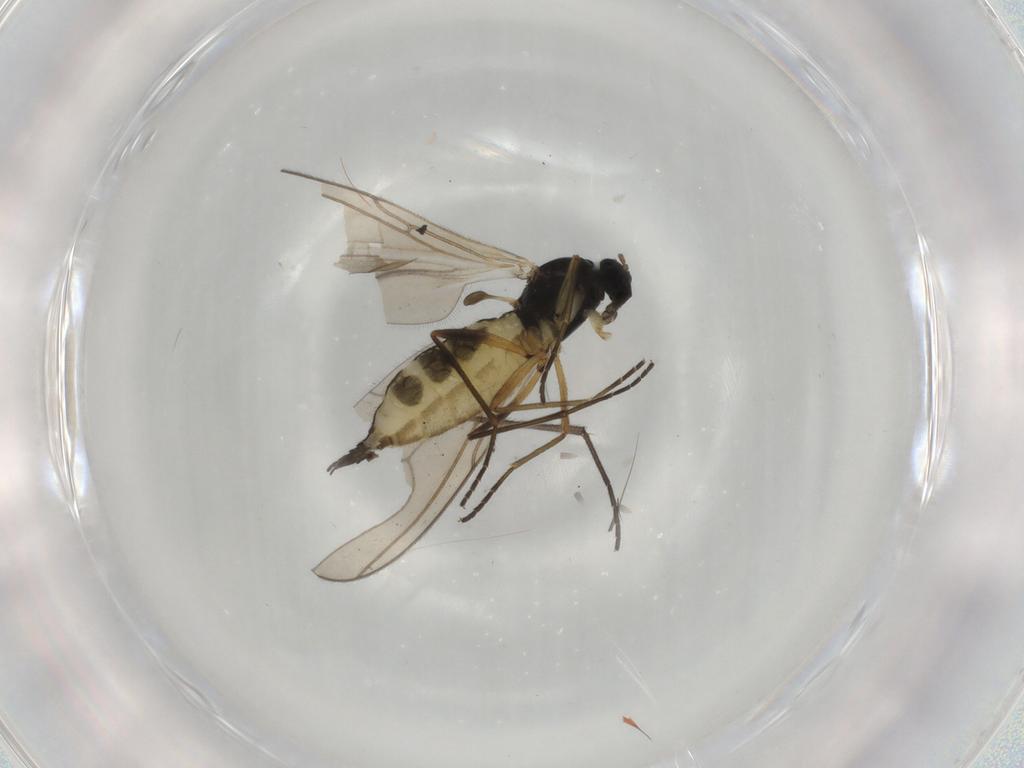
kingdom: Animalia
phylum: Arthropoda
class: Insecta
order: Diptera
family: Sciaridae
